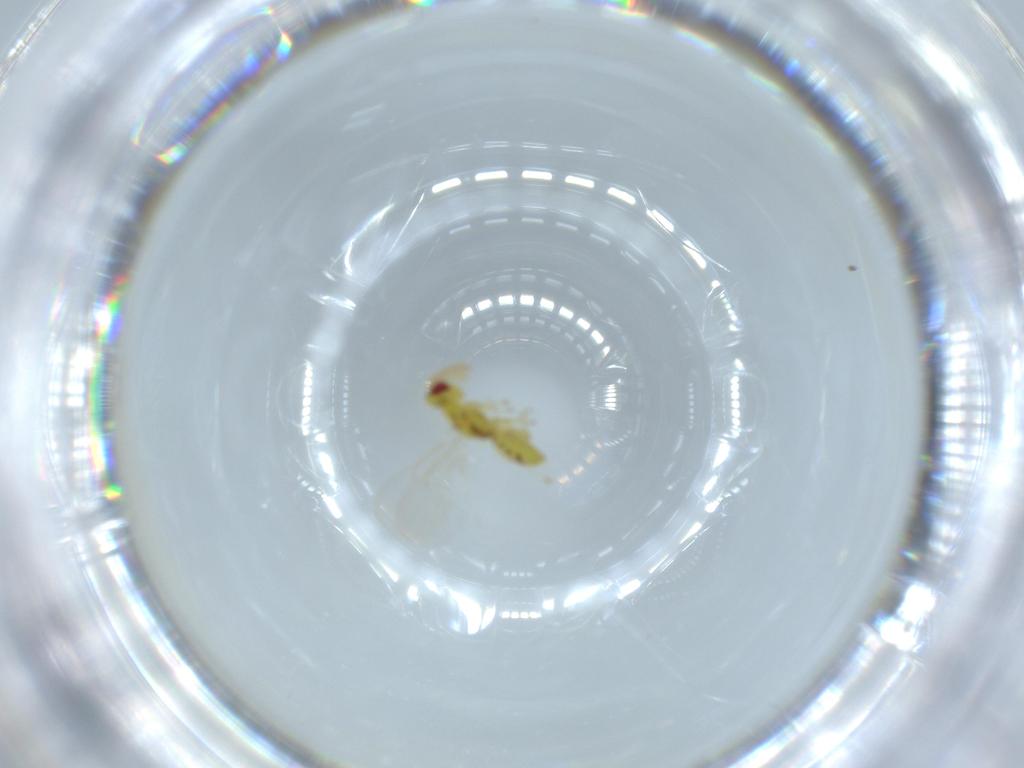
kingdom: Animalia
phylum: Arthropoda
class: Insecta
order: Hymenoptera
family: Eulophidae
